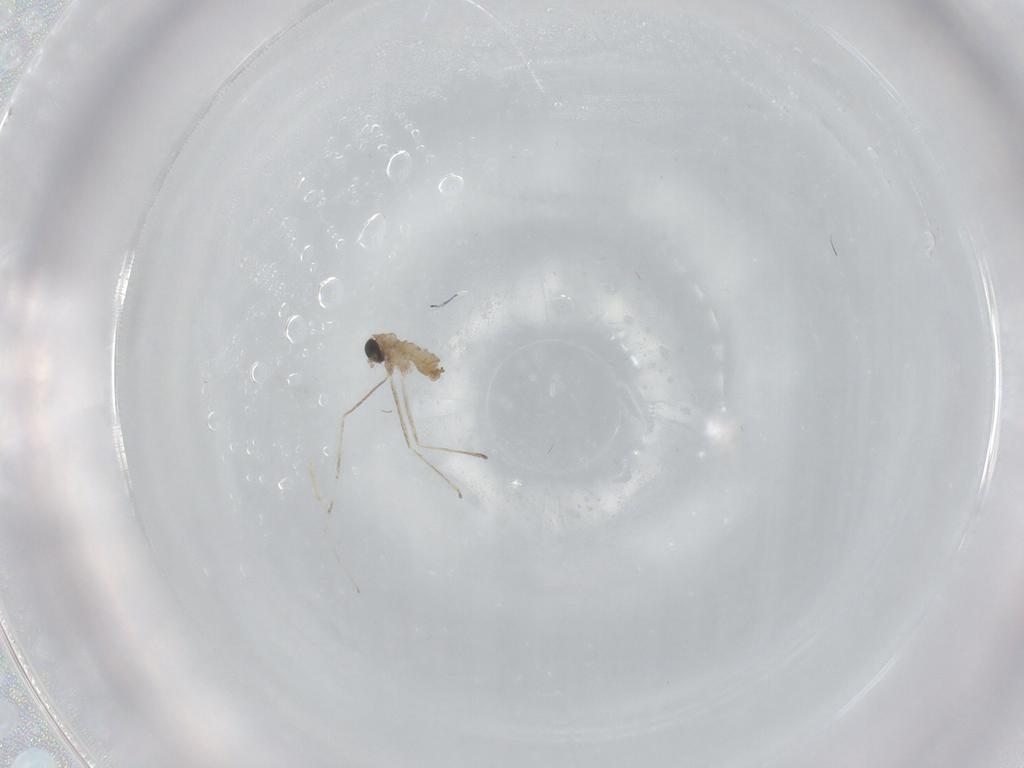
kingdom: Animalia
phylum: Arthropoda
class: Insecta
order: Diptera
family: Cecidomyiidae
